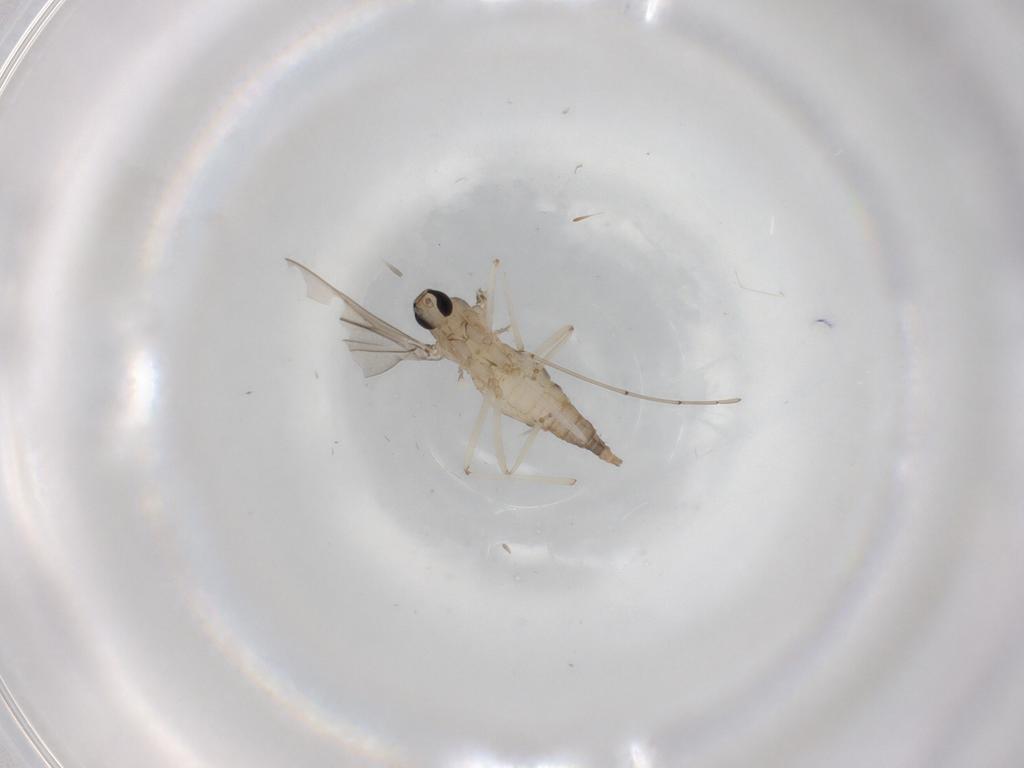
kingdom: Animalia
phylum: Arthropoda
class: Insecta
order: Diptera
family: Cecidomyiidae
